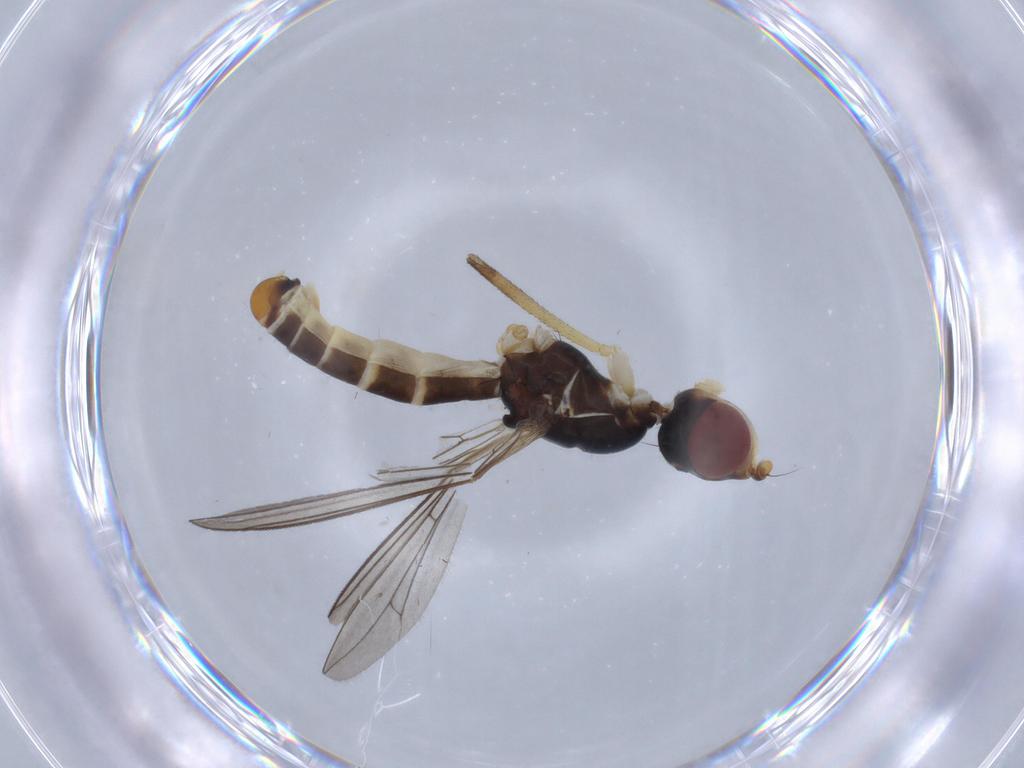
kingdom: Animalia
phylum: Arthropoda
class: Insecta
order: Diptera
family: Micropezidae
